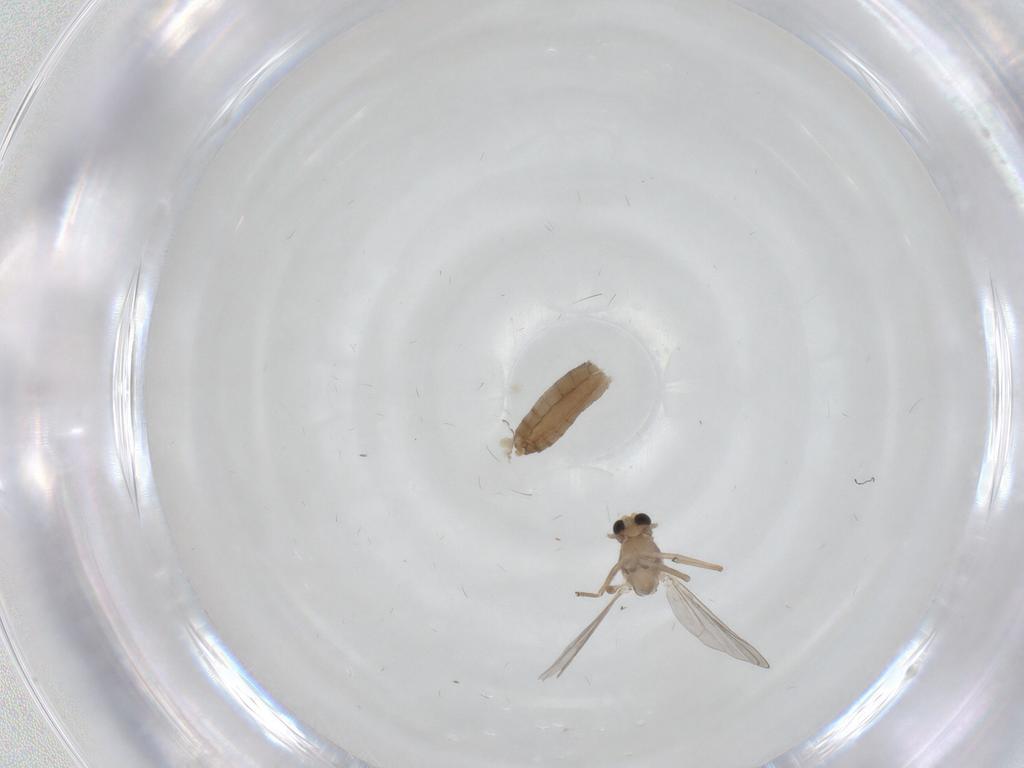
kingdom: Animalia
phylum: Arthropoda
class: Insecta
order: Diptera
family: Chironomidae
